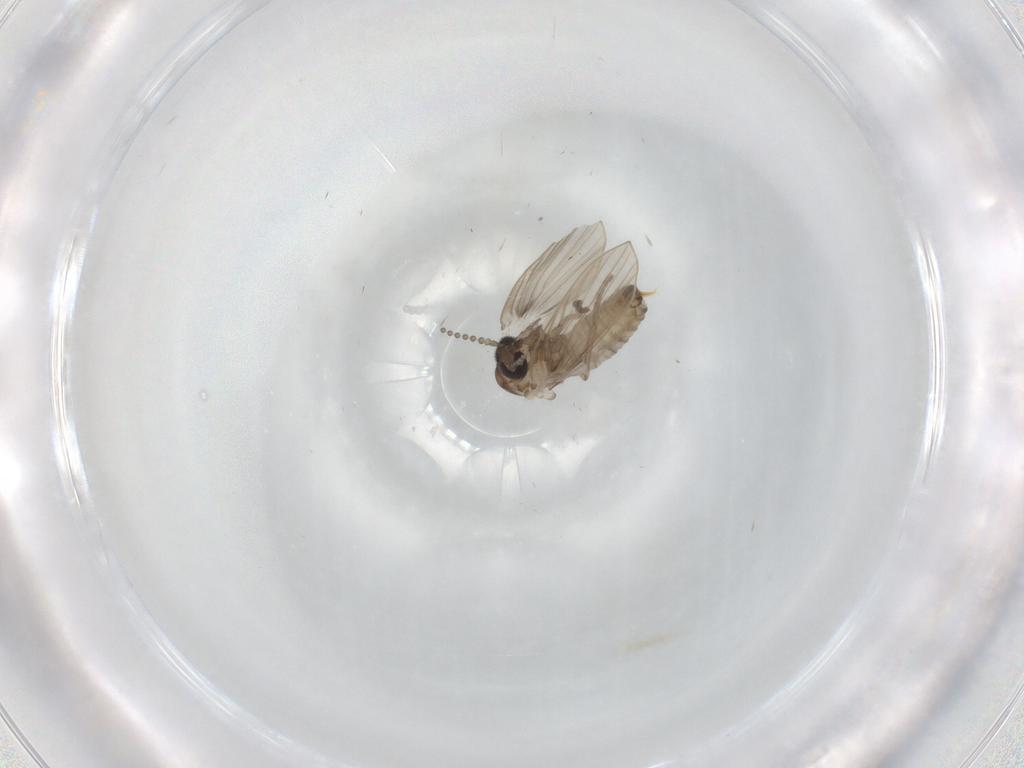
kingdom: Animalia
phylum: Arthropoda
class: Insecta
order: Diptera
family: Psychodidae
